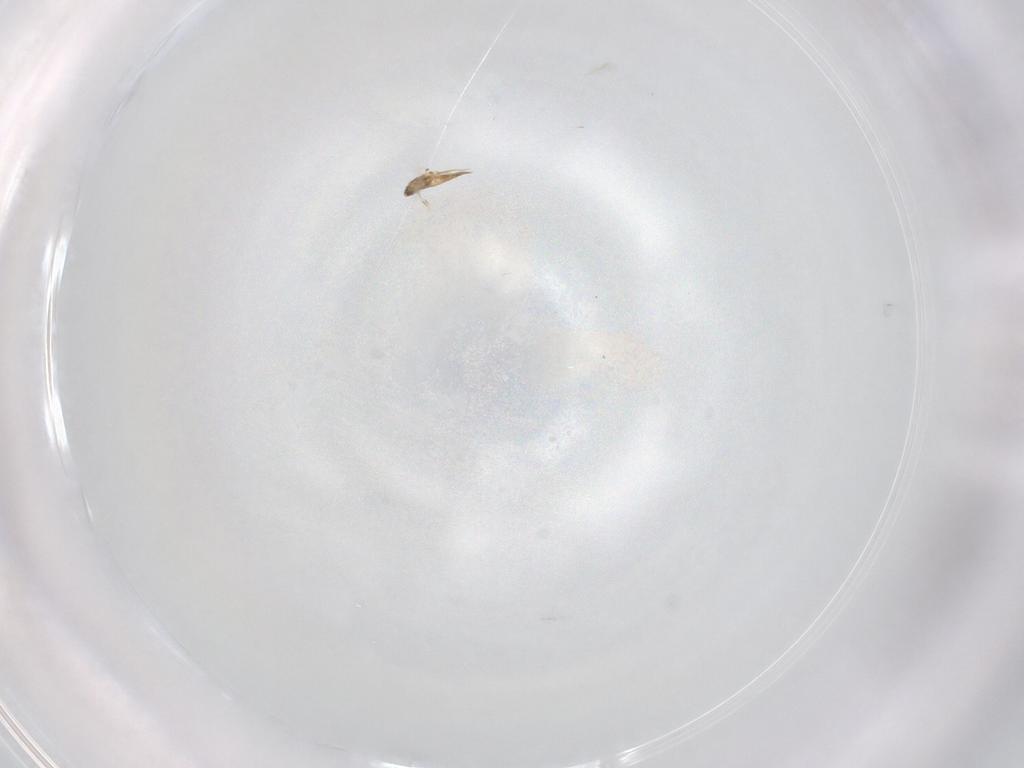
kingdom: Animalia
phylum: Arthropoda
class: Insecta
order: Hymenoptera
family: Mymaridae
